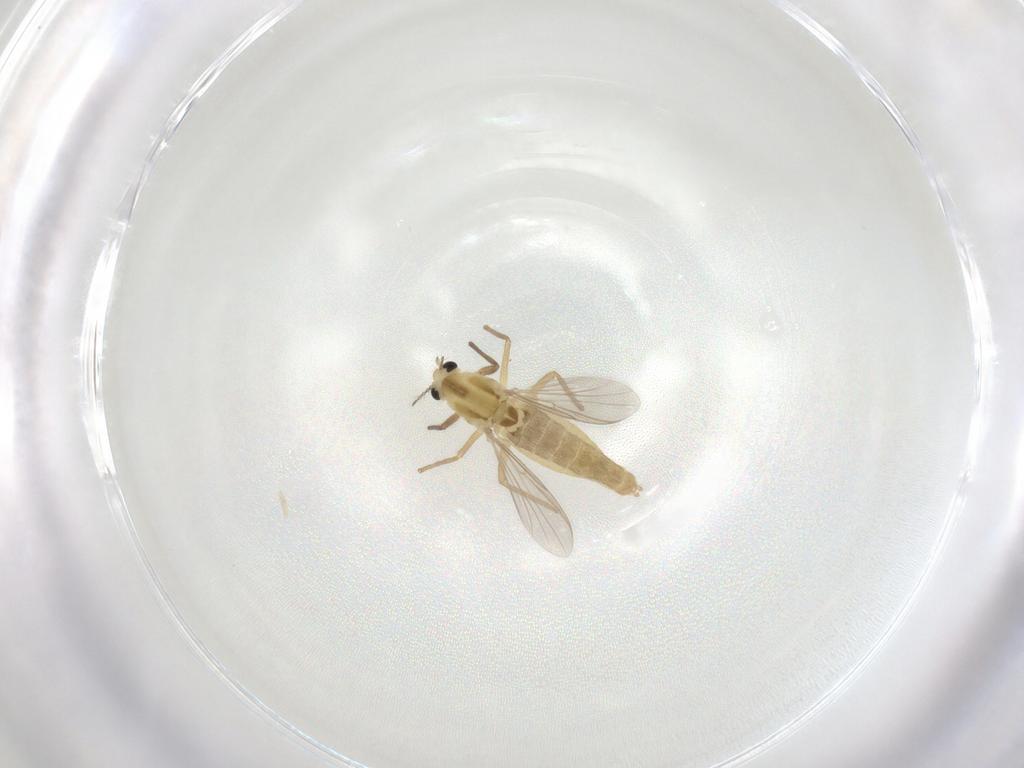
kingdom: Animalia
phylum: Arthropoda
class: Insecta
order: Diptera
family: Chironomidae
